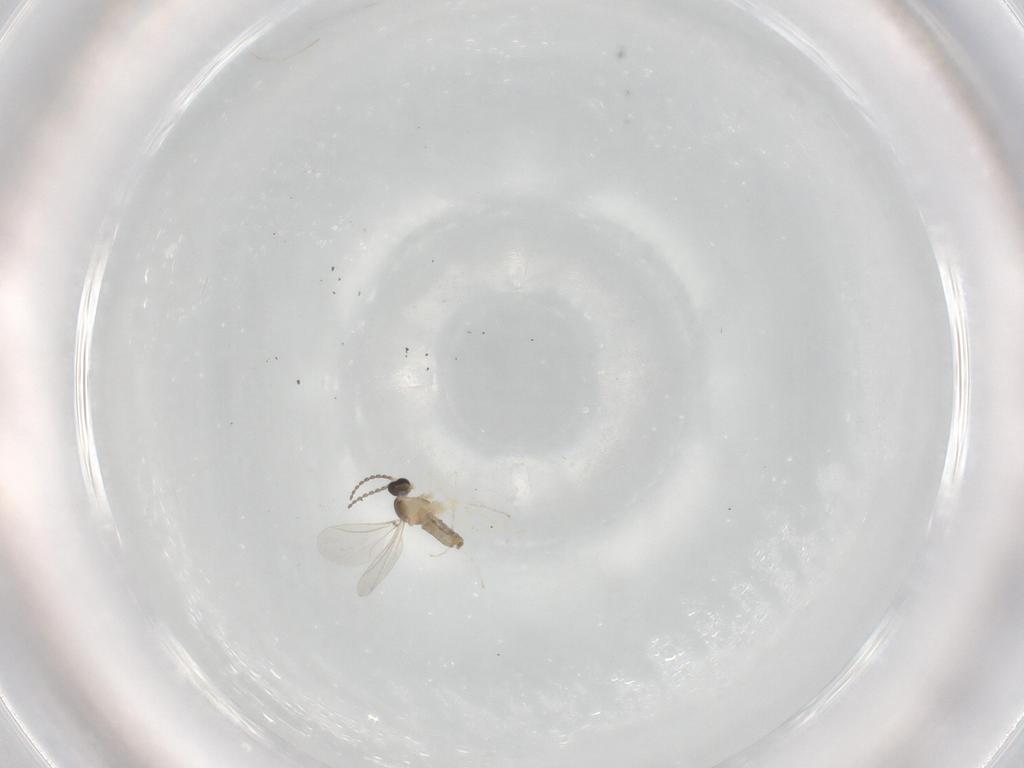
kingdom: Animalia
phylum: Arthropoda
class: Insecta
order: Diptera
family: Cecidomyiidae
